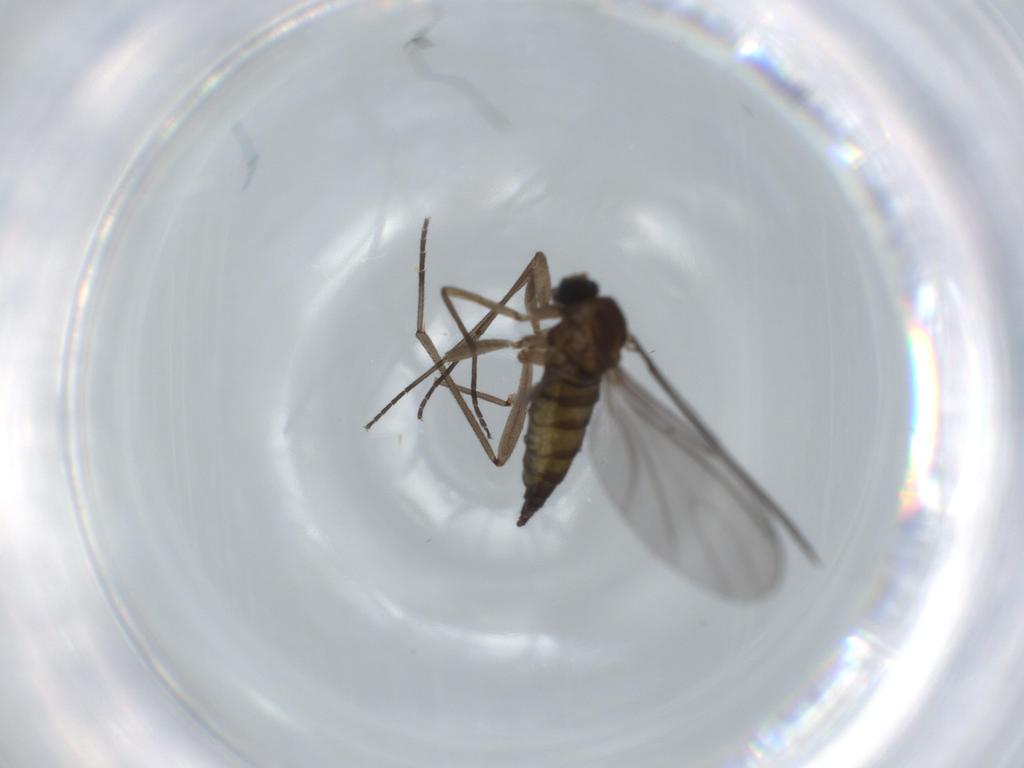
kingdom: Animalia
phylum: Arthropoda
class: Insecta
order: Diptera
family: Sciaridae
